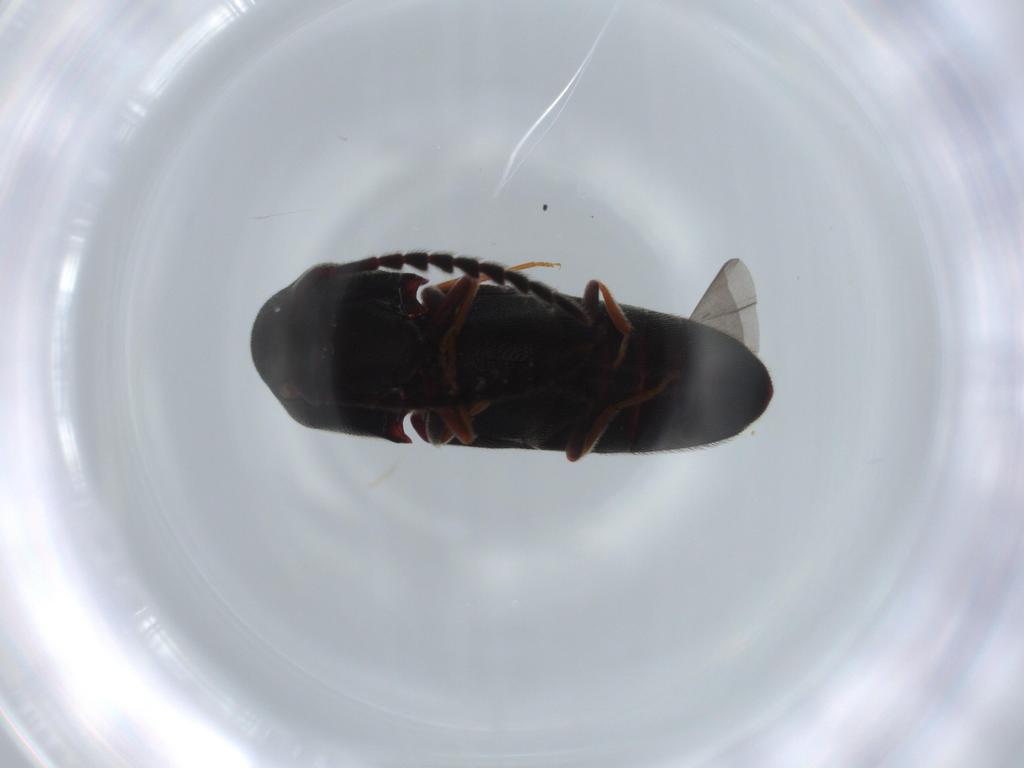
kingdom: Animalia
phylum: Arthropoda
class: Insecta
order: Coleoptera
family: Eucnemidae
